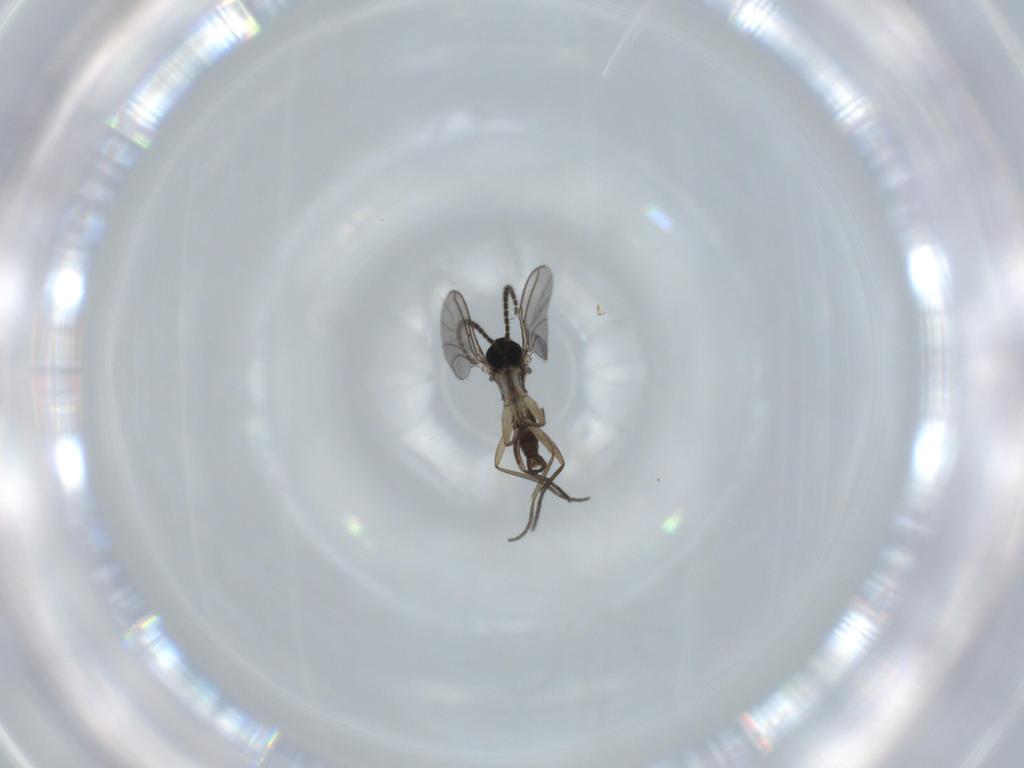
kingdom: Animalia
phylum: Arthropoda
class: Insecta
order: Diptera
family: Sciaridae
